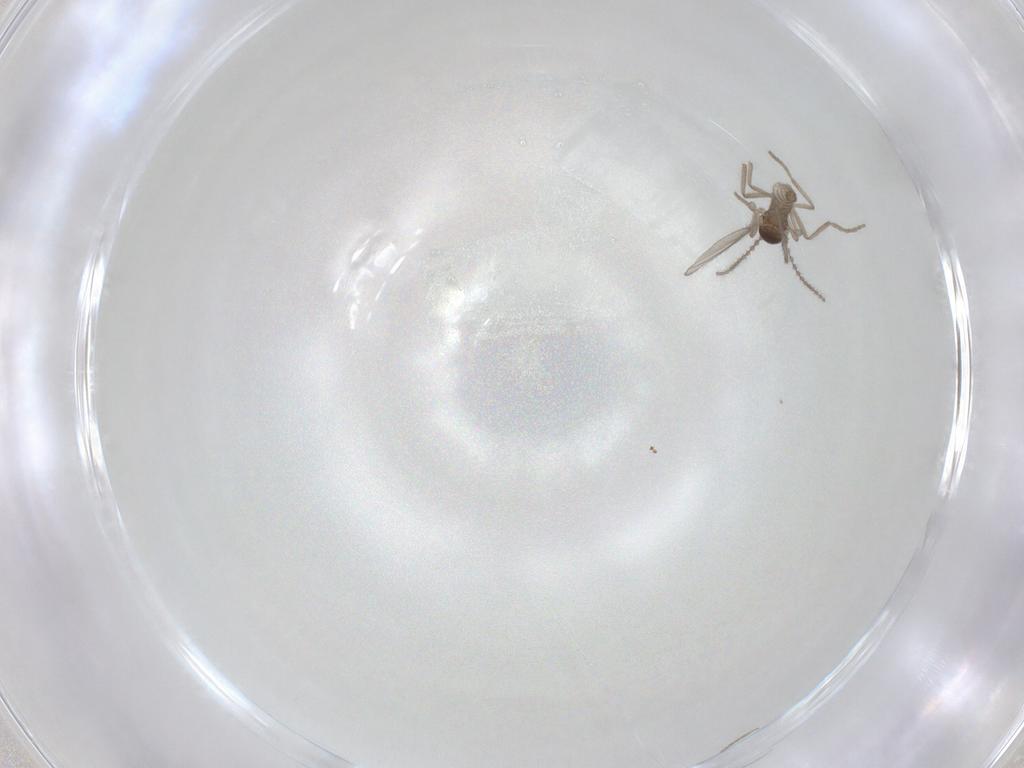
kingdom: Animalia
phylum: Arthropoda
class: Insecta
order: Diptera
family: Cecidomyiidae
